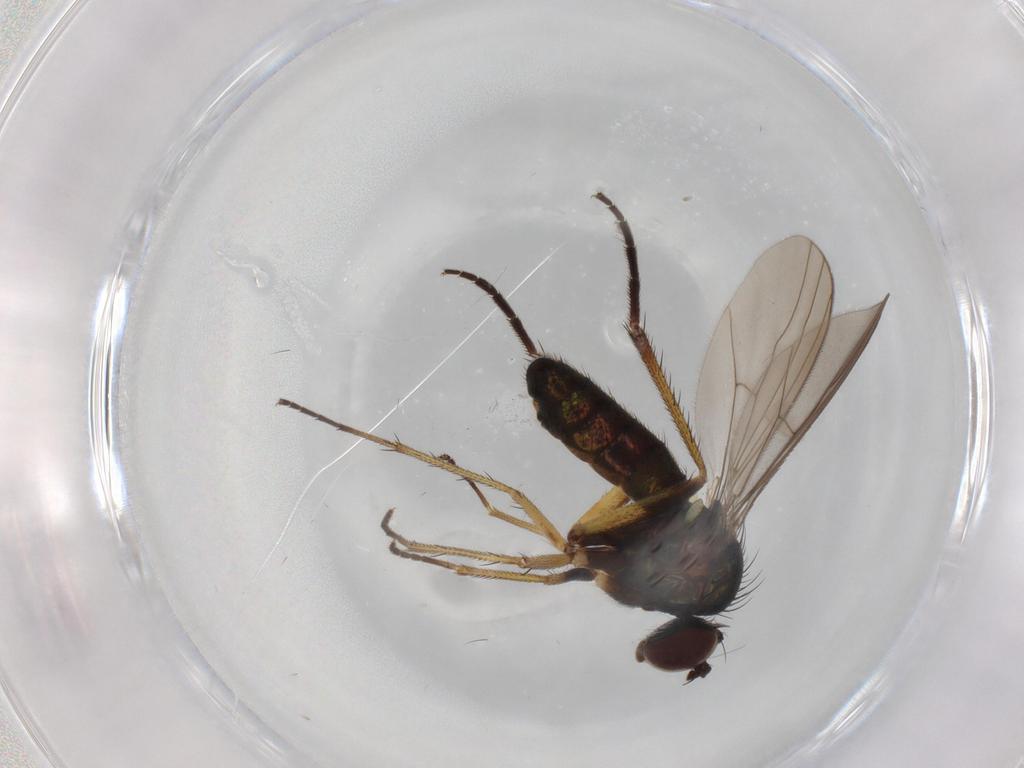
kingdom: Animalia
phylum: Arthropoda
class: Insecta
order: Diptera
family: Dolichopodidae
